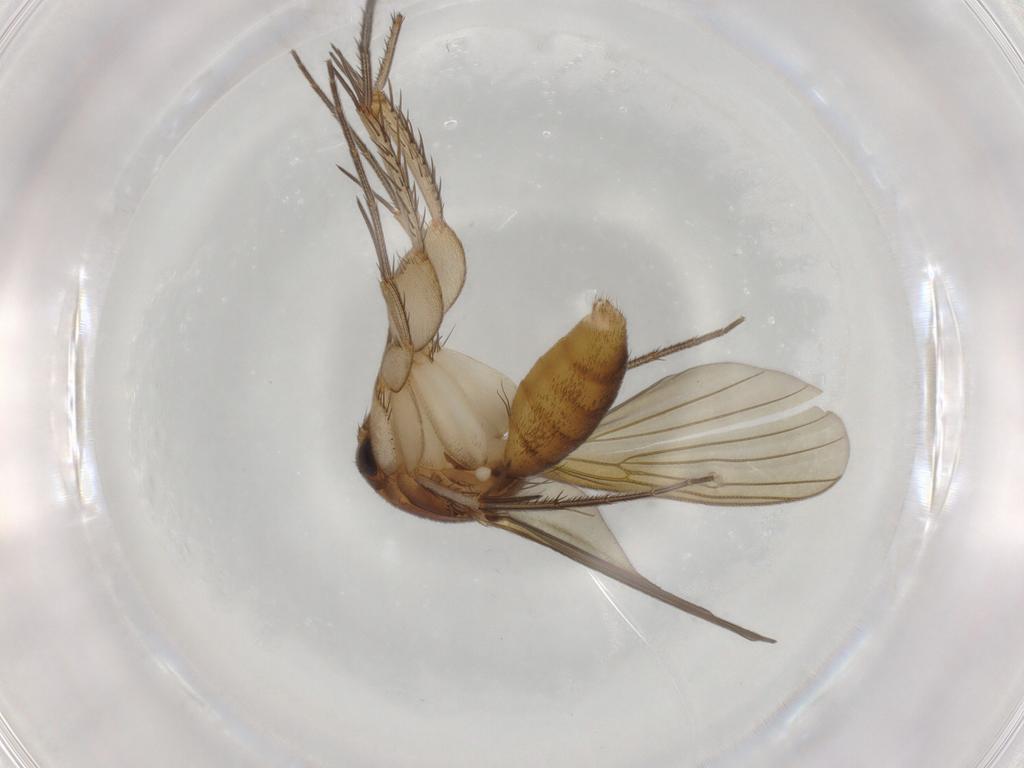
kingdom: Animalia
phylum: Arthropoda
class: Insecta
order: Diptera
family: Mycetophilidae
